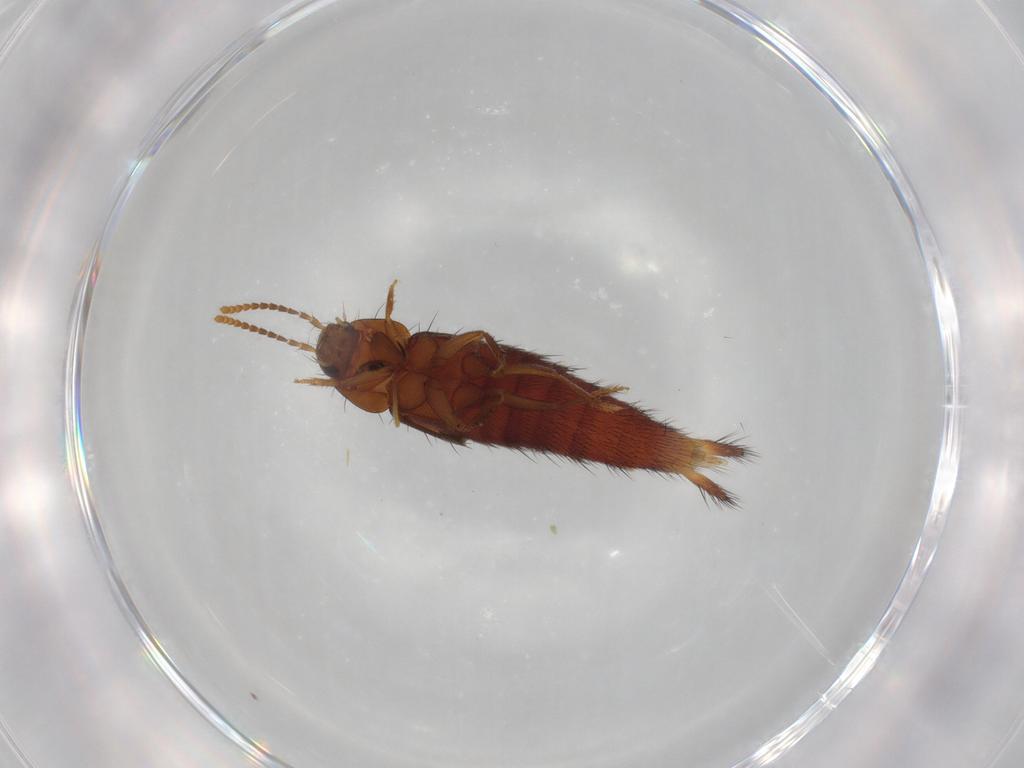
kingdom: Animalia
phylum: Arthropoda
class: Insecta
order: Coleoptera
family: Staphylinidae
